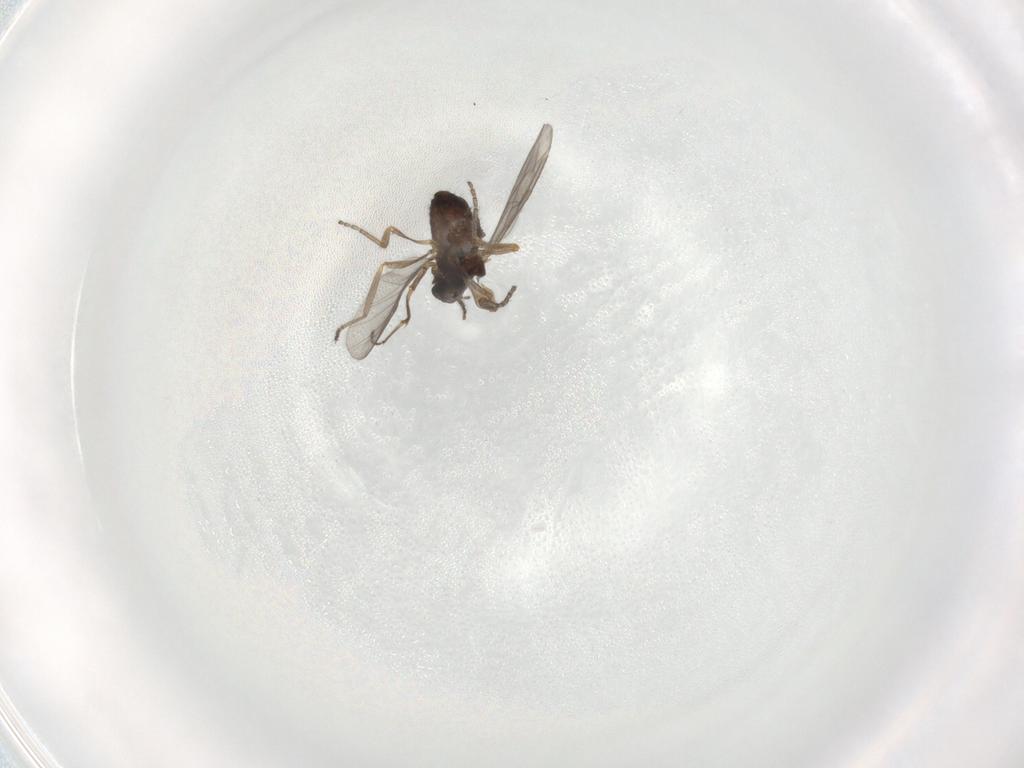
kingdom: Animalia
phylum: Arthropoda
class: Insecta
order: Diptera
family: Ceratopogonidae
